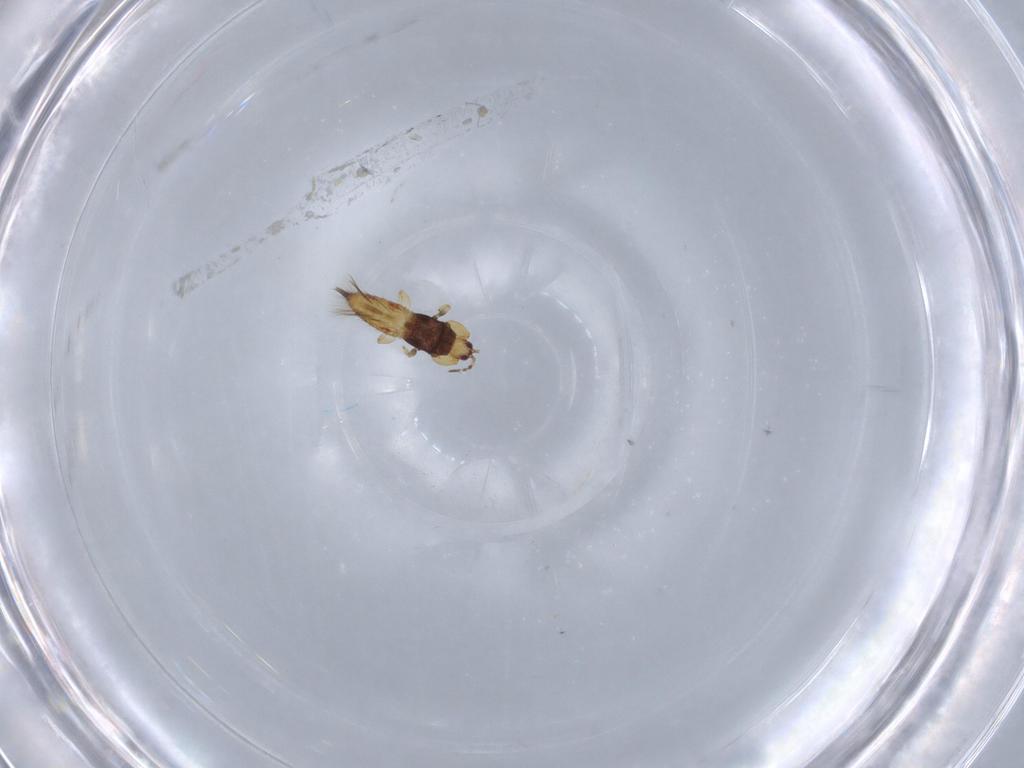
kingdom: Animalia
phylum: Arthropoda
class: Insecta
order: Thysanoptera
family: Phlaeothripidae
